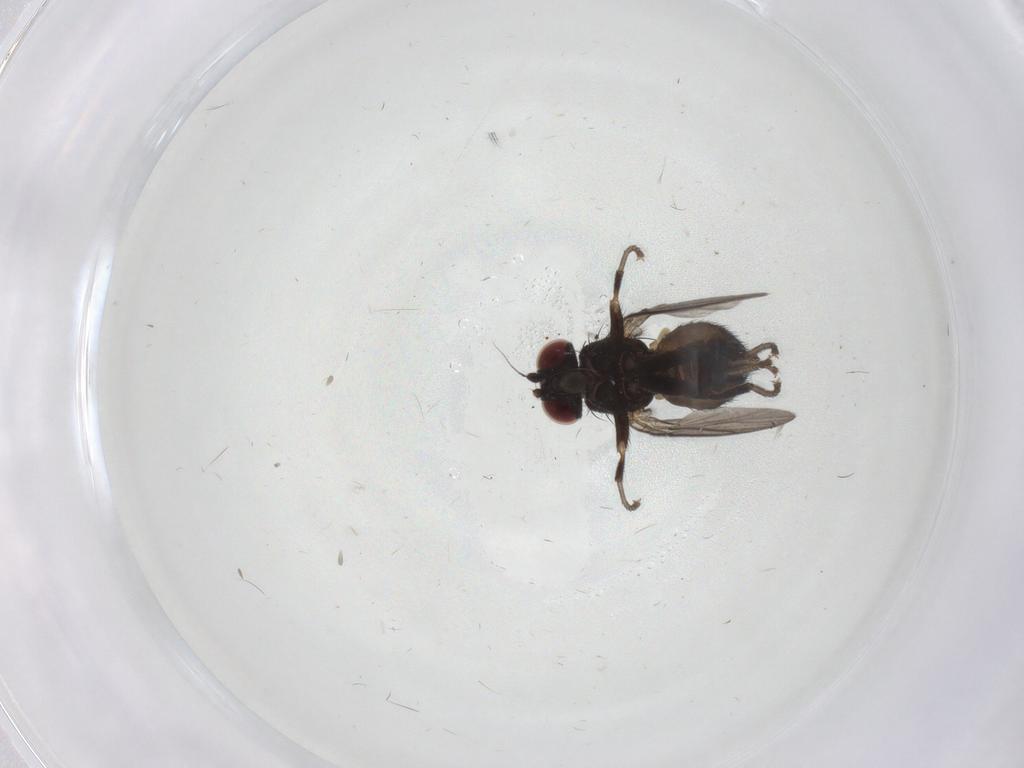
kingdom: Animalia
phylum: Arthropoda
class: Insecta
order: Diptera
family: Agromyzidae
